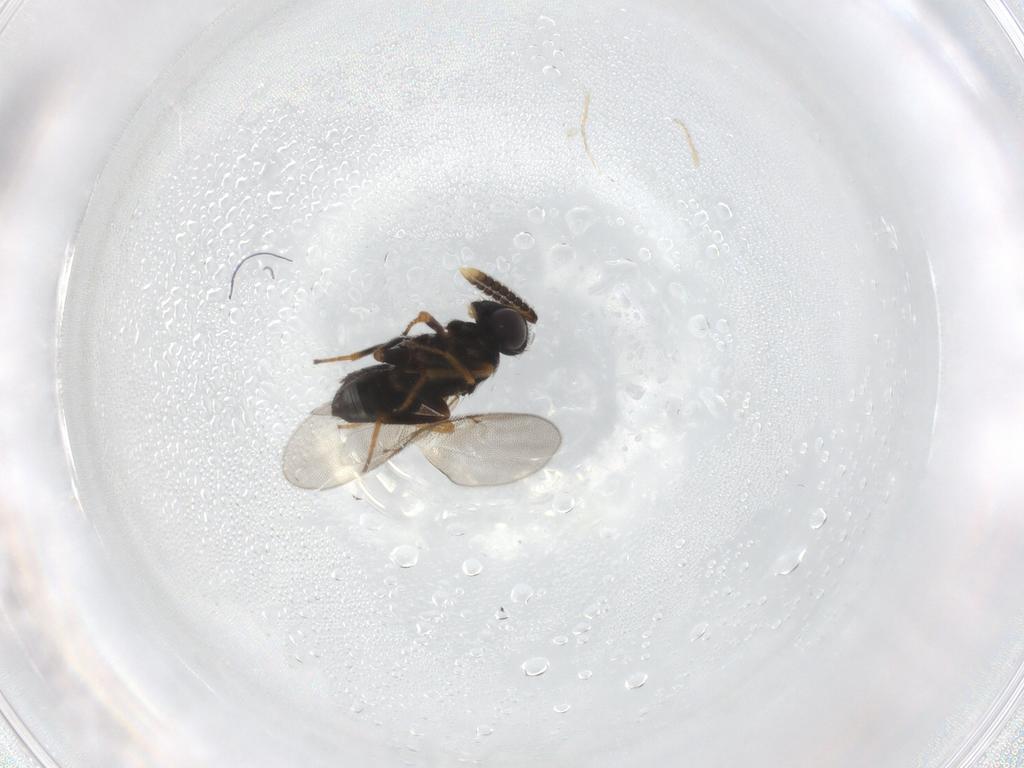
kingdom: Animalia
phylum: Arthropoda
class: Insecta
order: Hymenoptera
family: Encyrtidae
